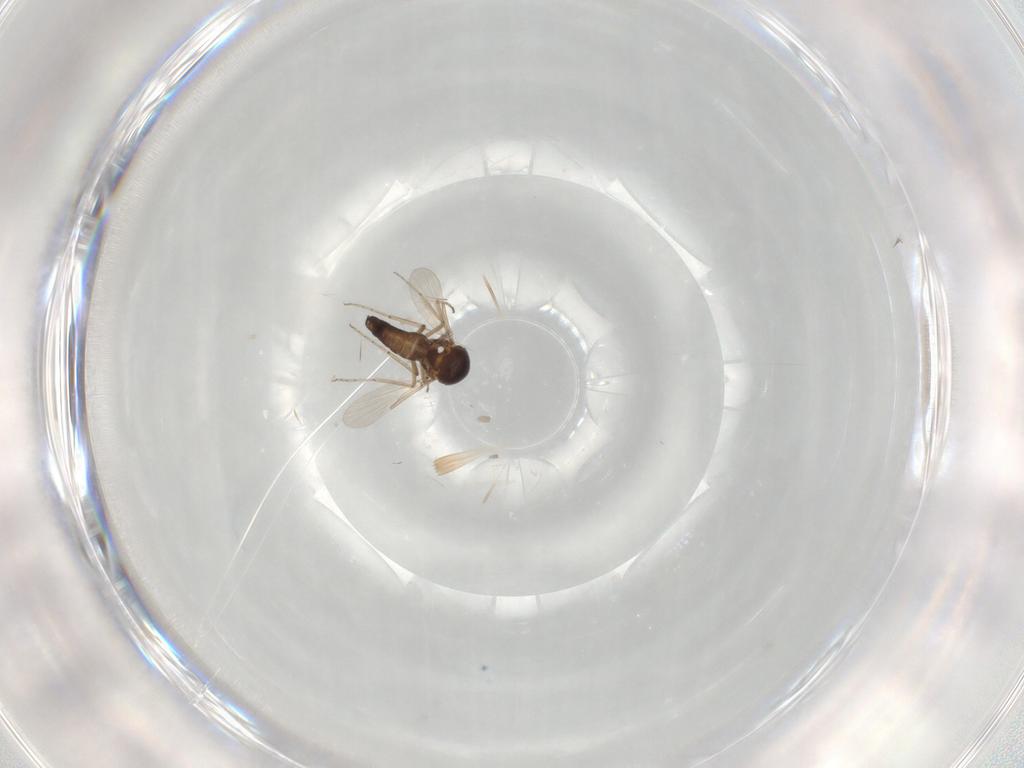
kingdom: Animalia
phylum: Arthropoda
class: Insecta
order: Diptera
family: Ceratopogonidae
